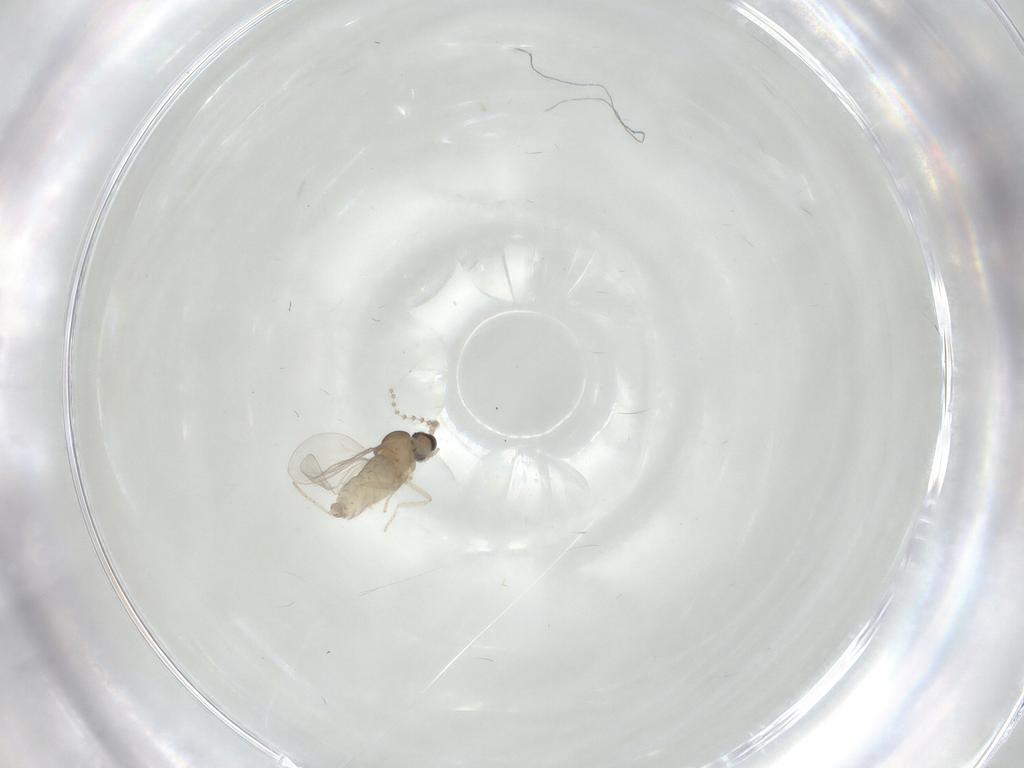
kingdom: Animalia
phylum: Arthropoda
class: Insecta
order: Diptera
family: Cecidomyiidae
